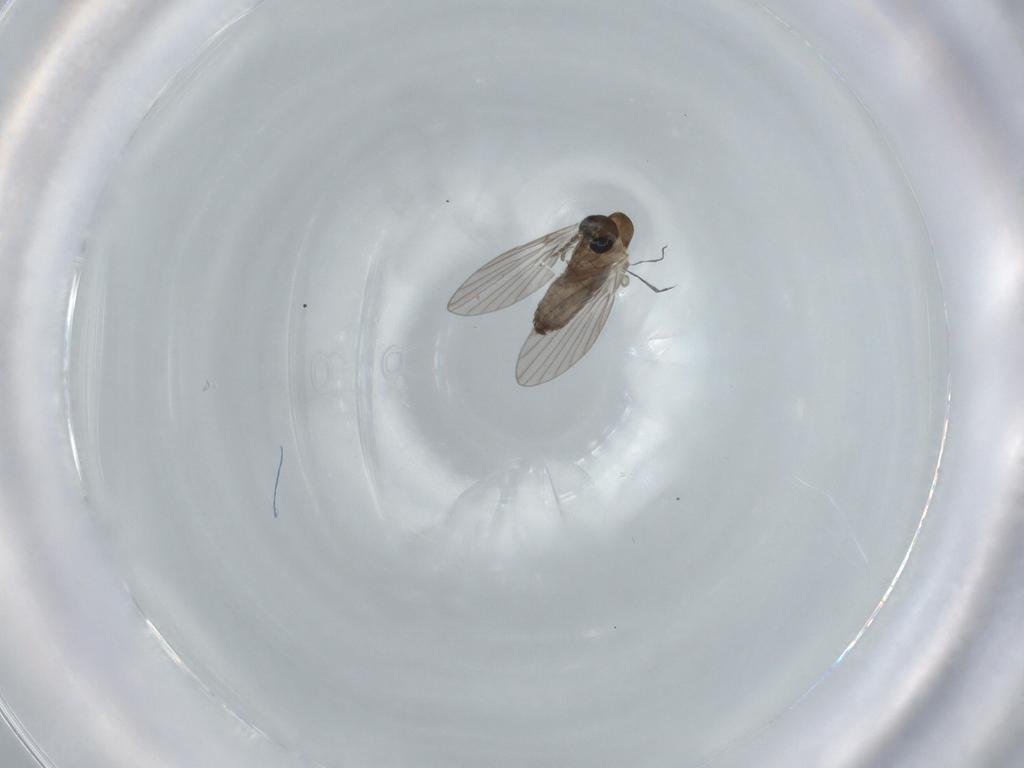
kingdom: Animalia
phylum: Arthropoda
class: Insecta
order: Diptera
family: Psychodidae
